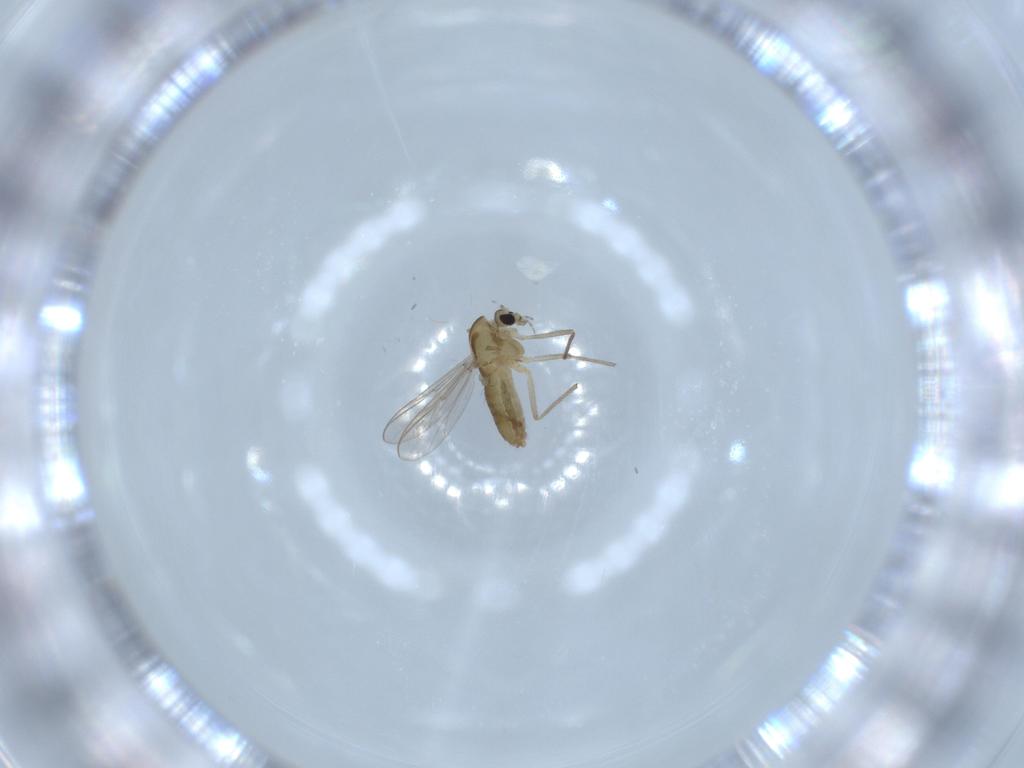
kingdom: Animalia
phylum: Arthropoda
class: Insecta
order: Diptera
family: Chironomidae
